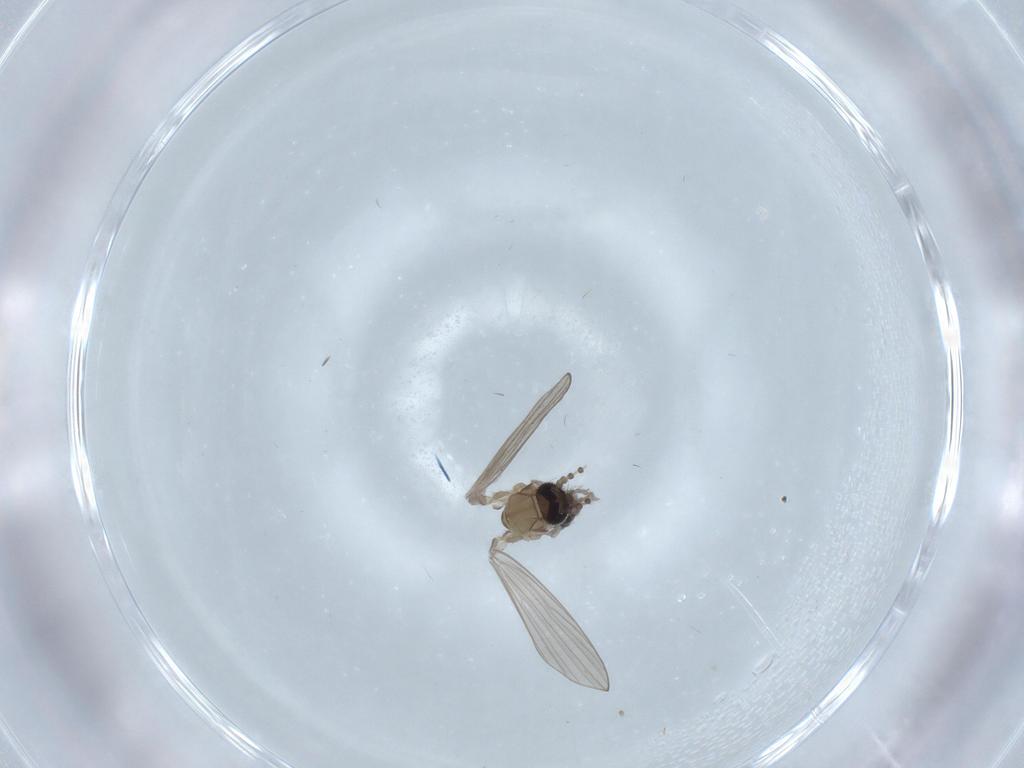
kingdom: Animalia
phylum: Arthropoda
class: Insecta
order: Diptera
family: Psychodidae
